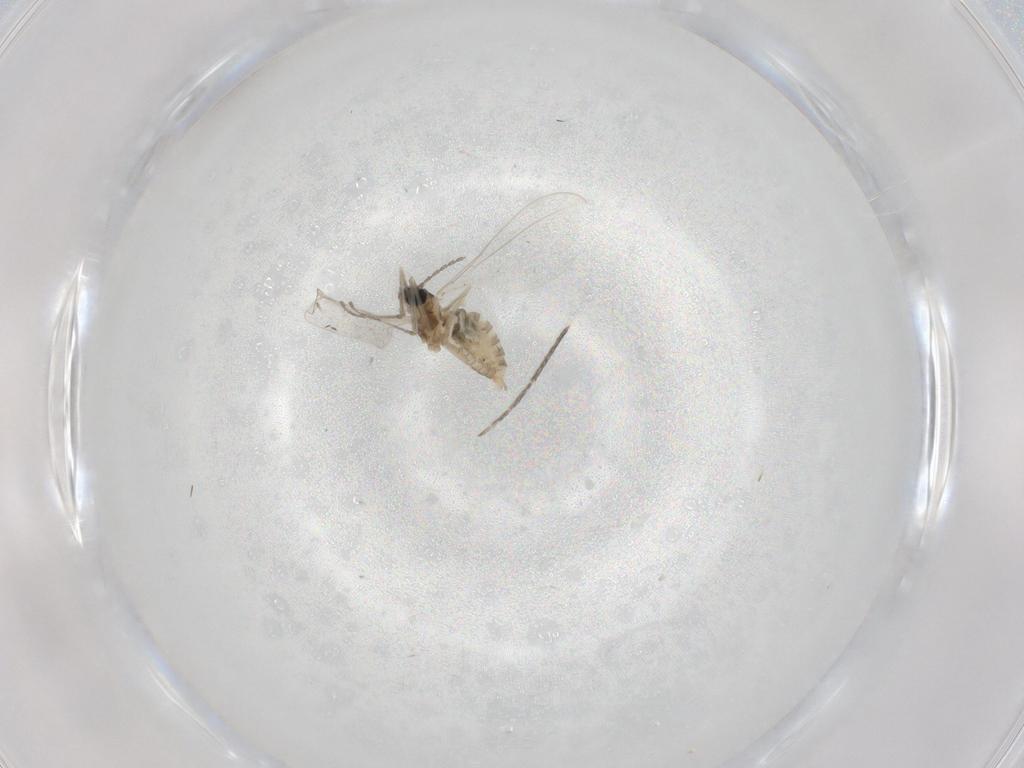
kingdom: Animalia
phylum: Arthropoda
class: Insecta
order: Diptera
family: Cecidomyiidae
